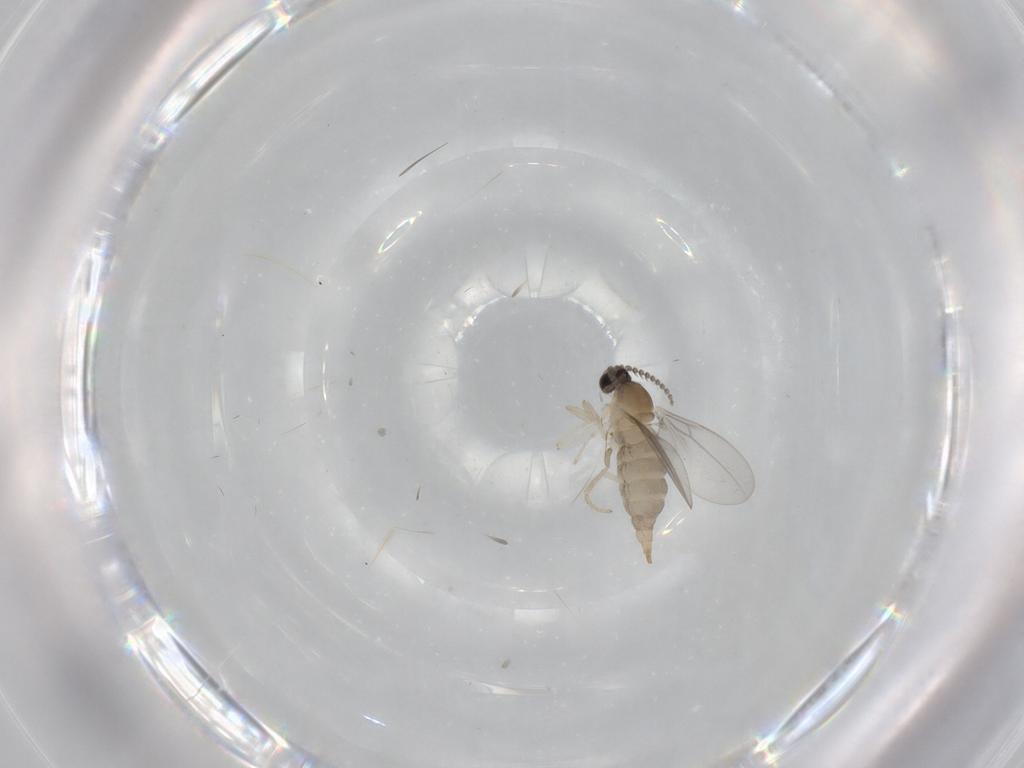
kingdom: Animalia
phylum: Arthropoda
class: Insecta
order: Diptera
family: Cecidomyiidae
